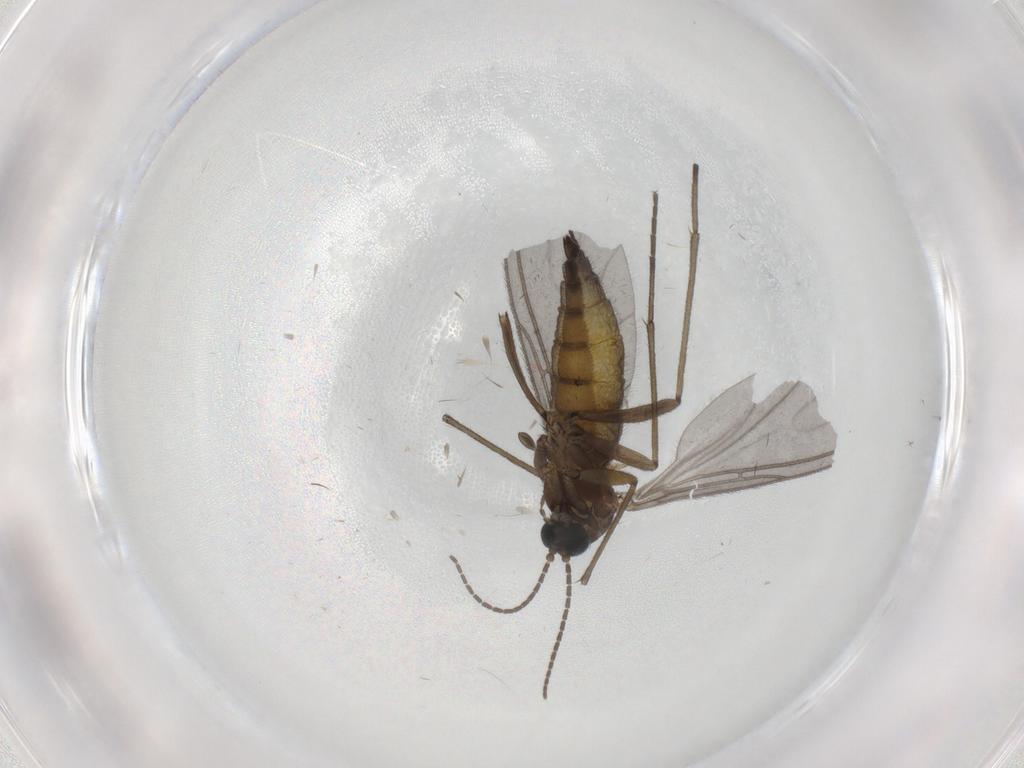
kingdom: Animalia
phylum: Arthropoda
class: Insecta
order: Diptera
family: Sciaridae
